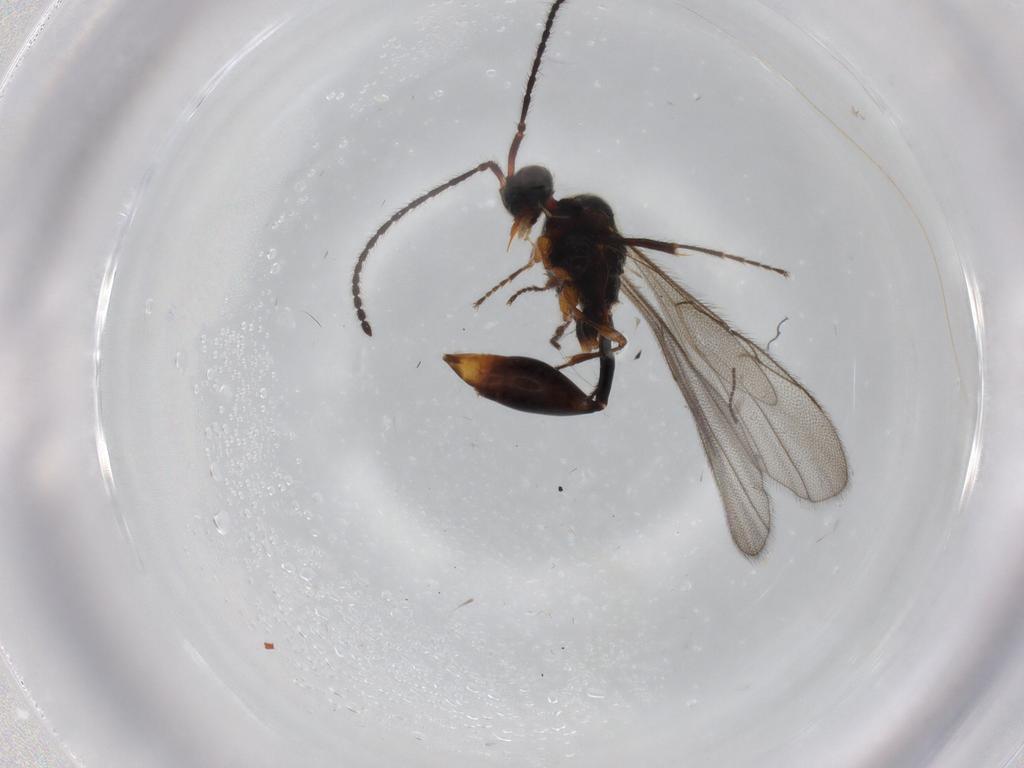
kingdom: Animalia
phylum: Arthropoda
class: Insecta
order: Hymenoptera
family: Diapriidae
